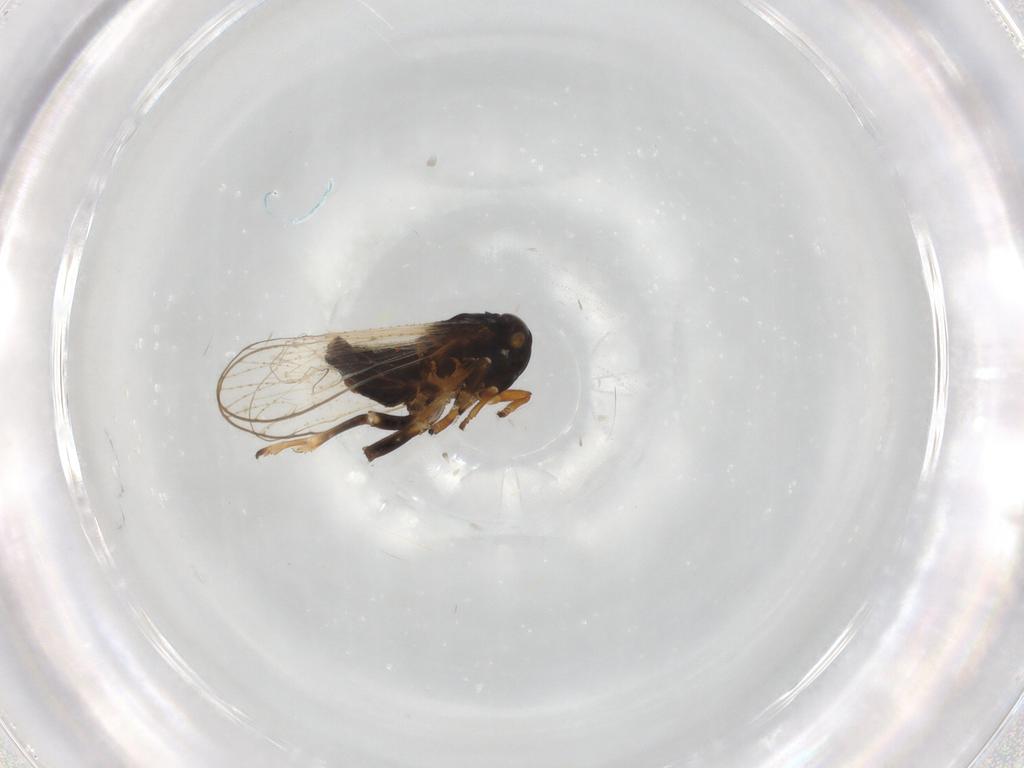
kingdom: Animalia
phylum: Arthropoda
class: Insecta
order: Hemiptera
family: Delphacidae
